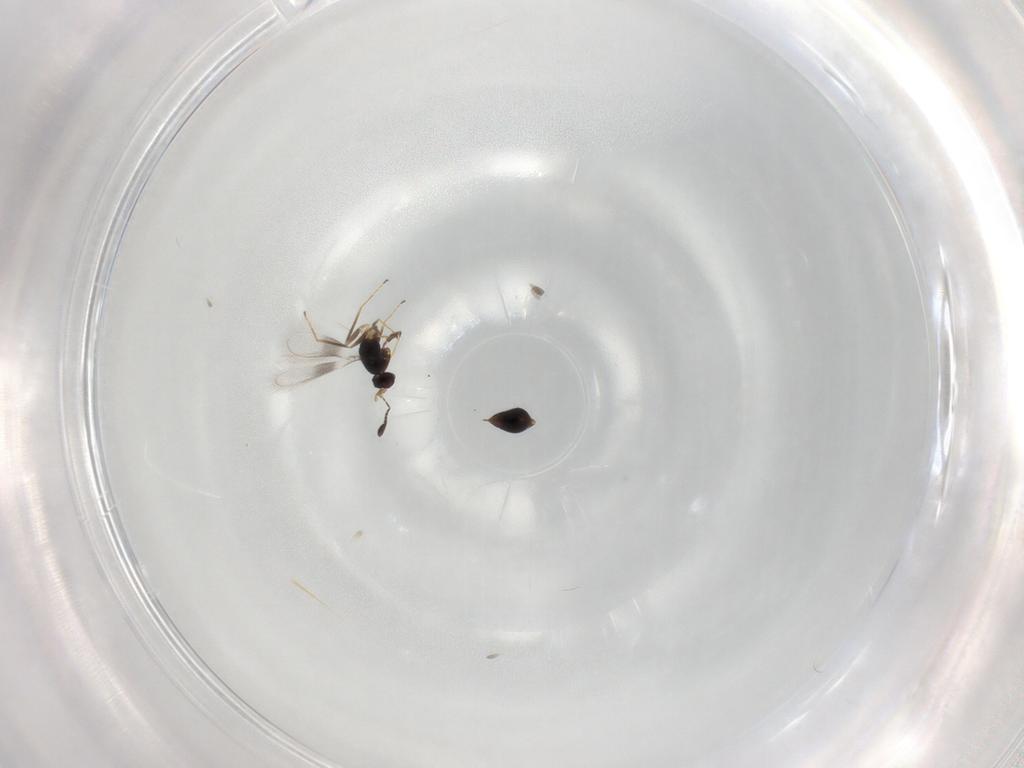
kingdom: Animalia
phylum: Arthropoda
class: Insecta
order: Hymenoptera
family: Mymaridae
